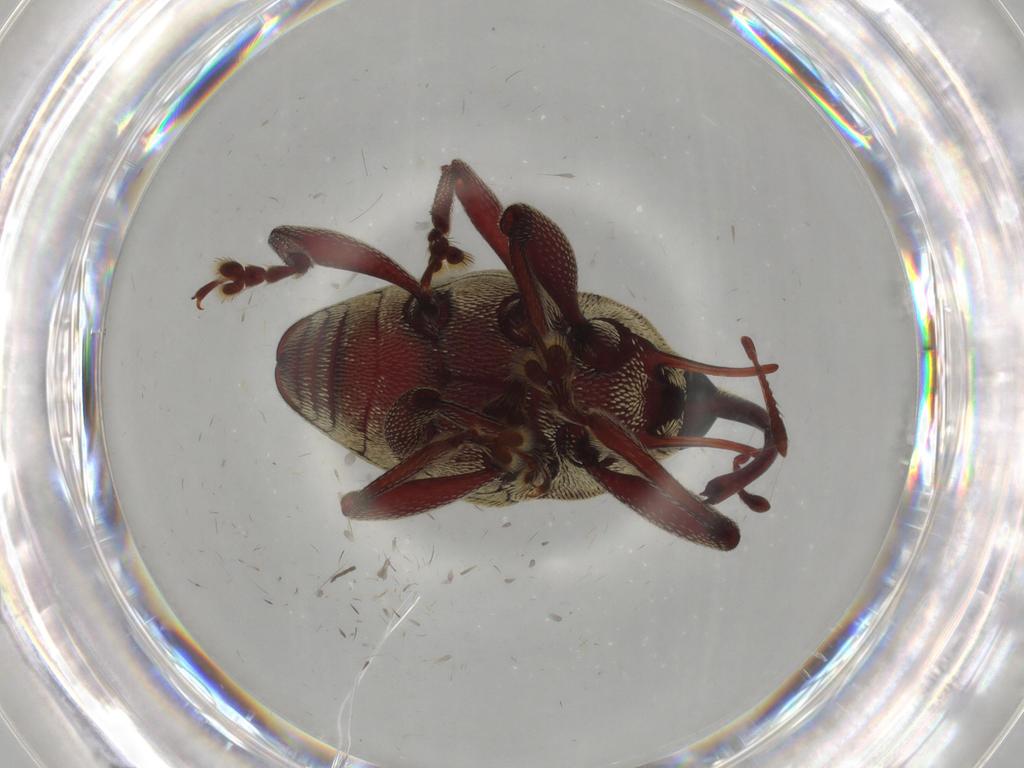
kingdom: Animalia
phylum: Arthropoda
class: Insecta
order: Coleoptera
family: Coccinellidae
